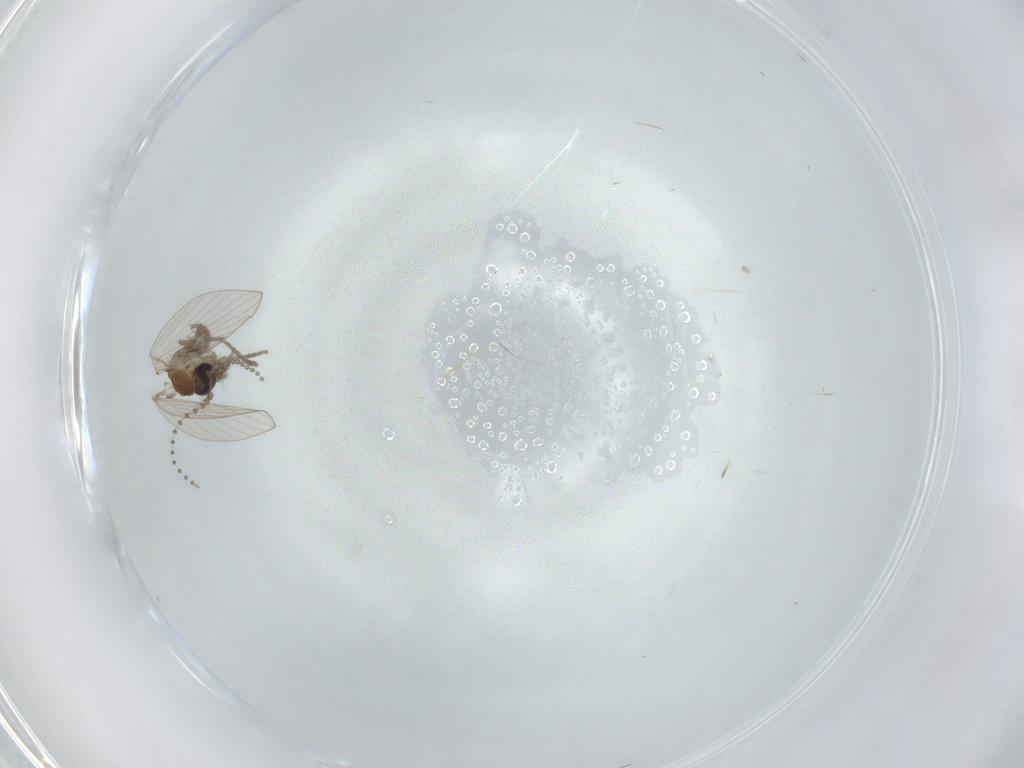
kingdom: Animalia
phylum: Arthropoda
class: Insecta
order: Diptera
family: Psychodidae
